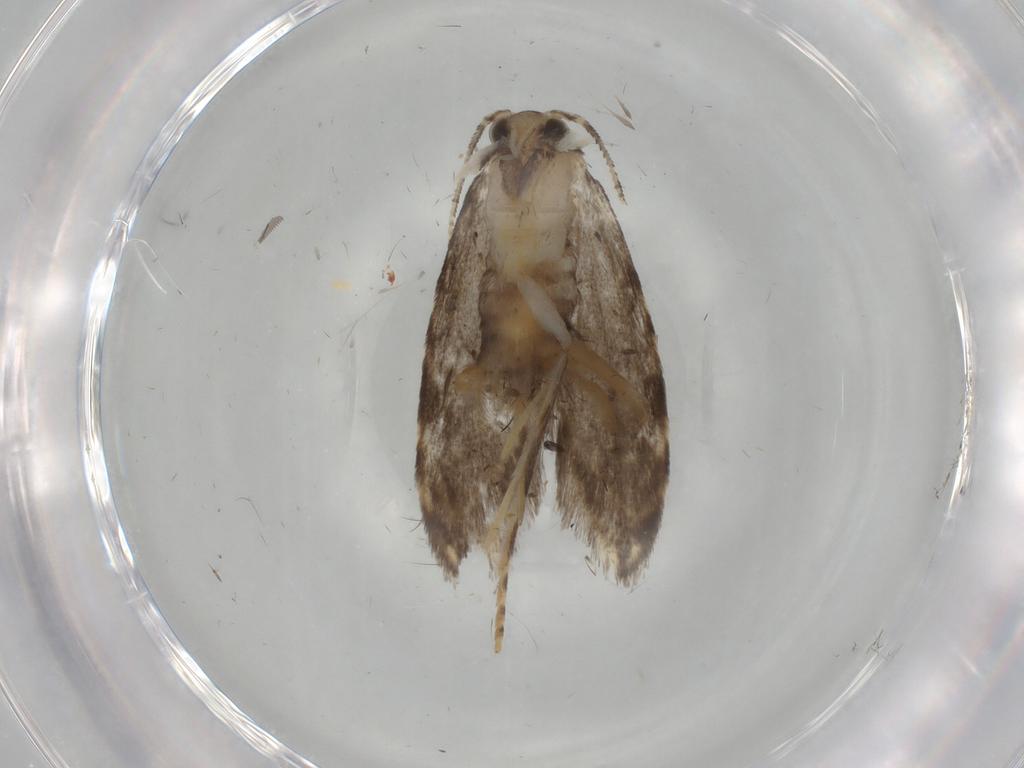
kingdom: Animalia
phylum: Arthropoda
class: Insecta
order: Lepidoptera
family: Tineidae
